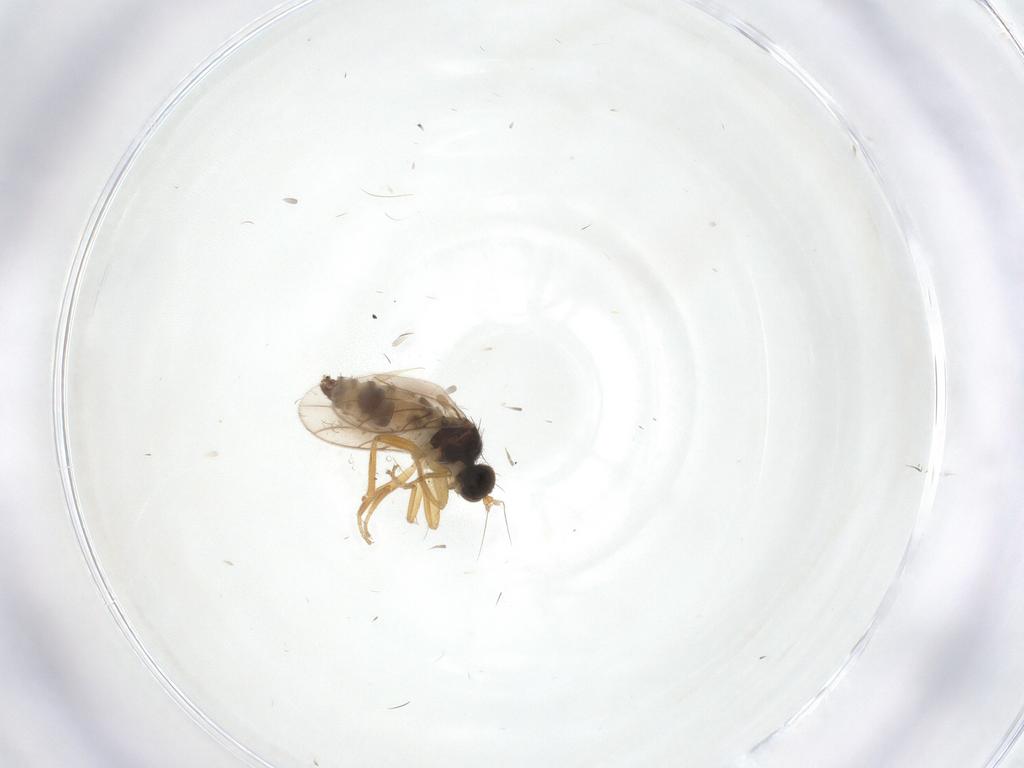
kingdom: Animalia
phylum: Arthropoda
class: Insecta
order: Diptera
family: Hybotidae
